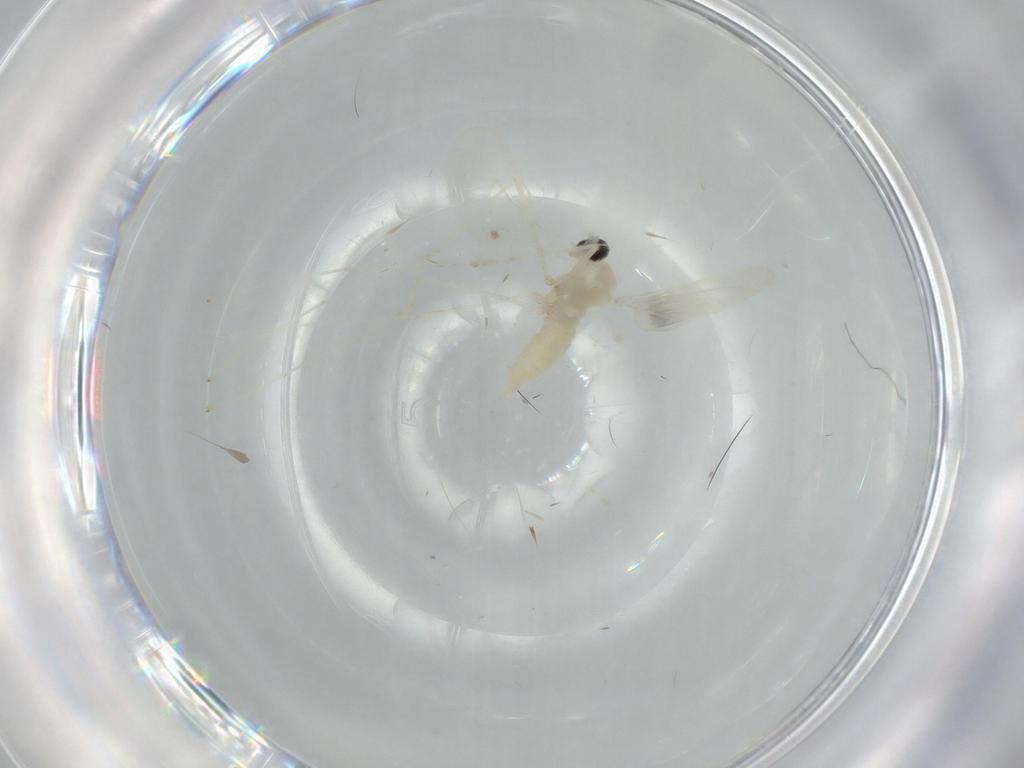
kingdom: Animalia
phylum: Arthropoda
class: Insecta
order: Diptera
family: Cecidomyiidae
